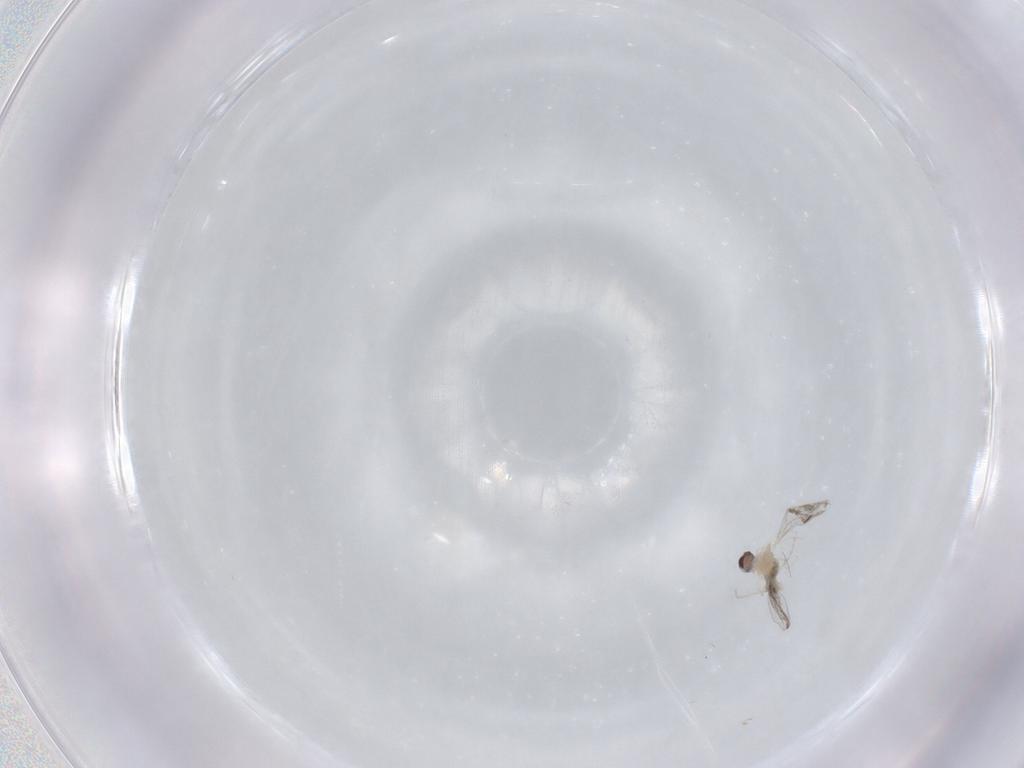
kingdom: Animalia
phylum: Arthropoda
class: Insecta
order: Diptera
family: Cecidomyiidae
